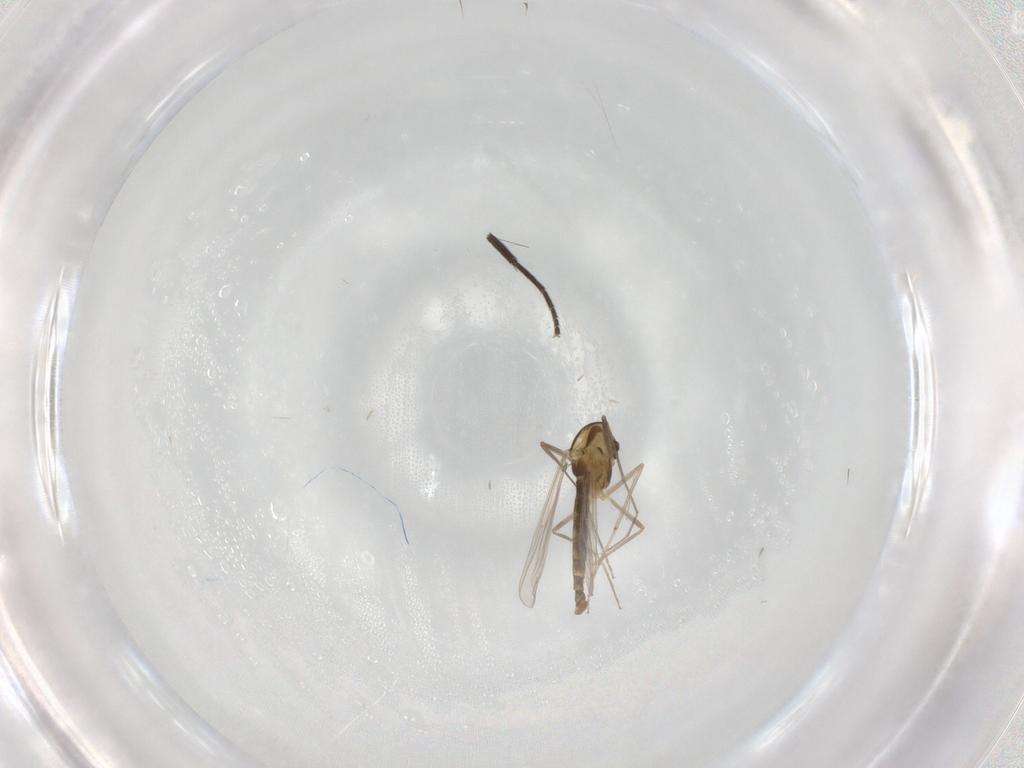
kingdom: Animalia
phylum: Arthropoda
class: Insecta
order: Diptera
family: Chironomidae
